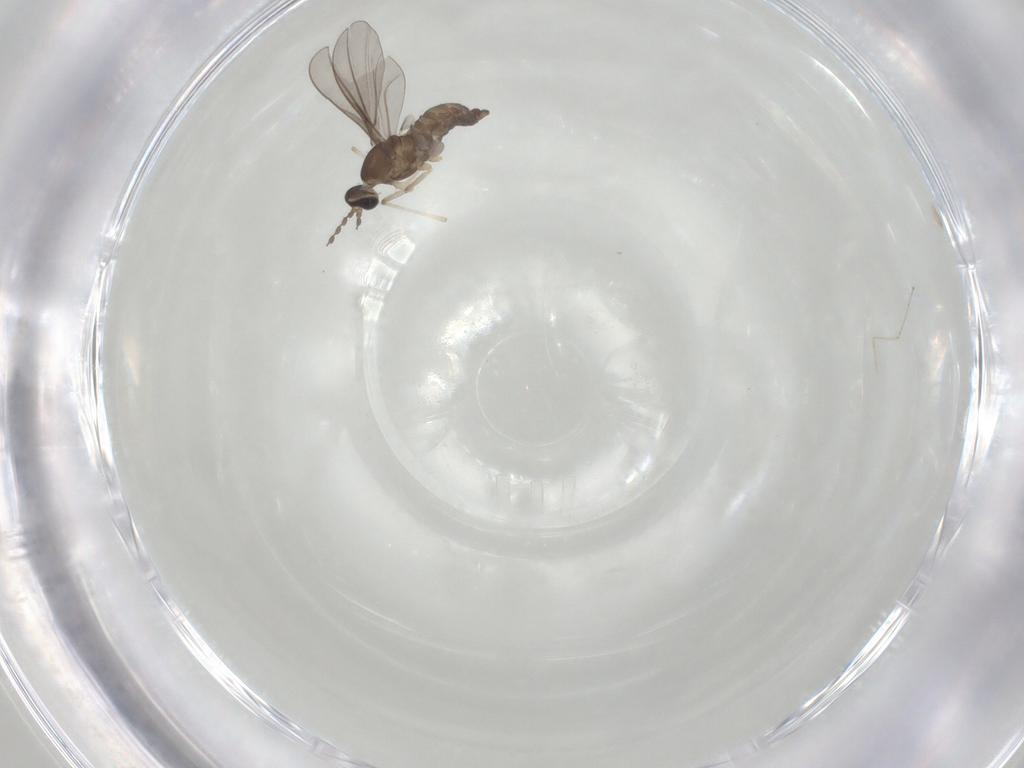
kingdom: Animalia
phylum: Arthropoda
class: Insecta
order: Diptera
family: Cecidomyiidae
